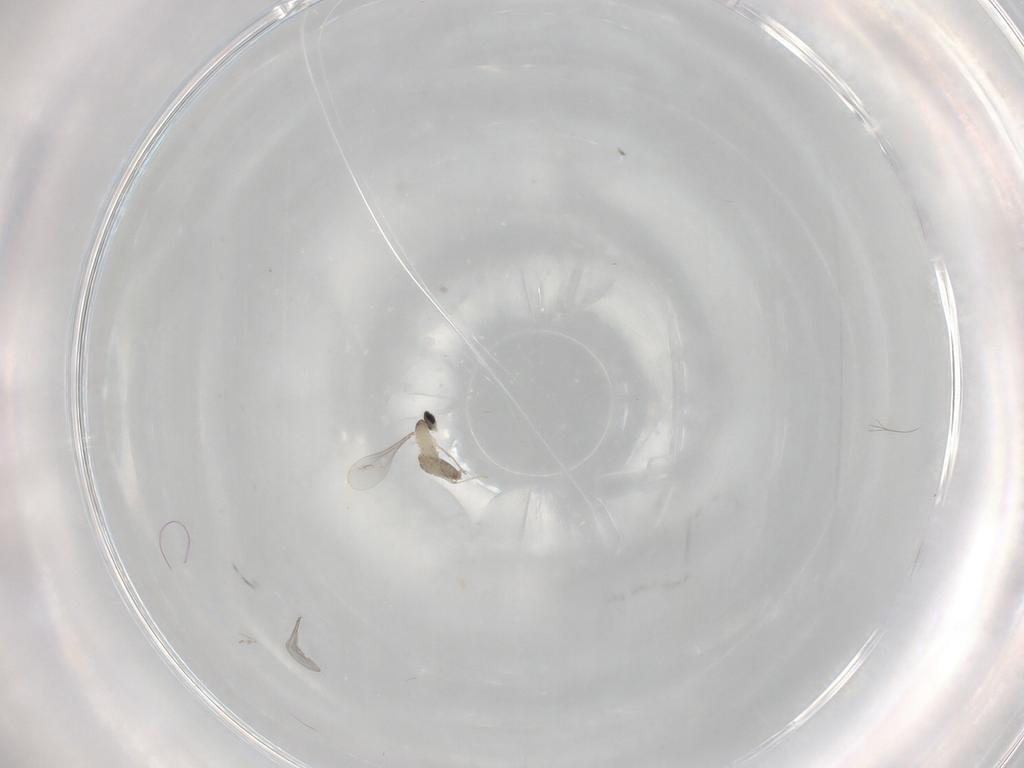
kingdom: Animalia
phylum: Arthropoda
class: Insecta
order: Diptera
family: Cecidomyiidae
